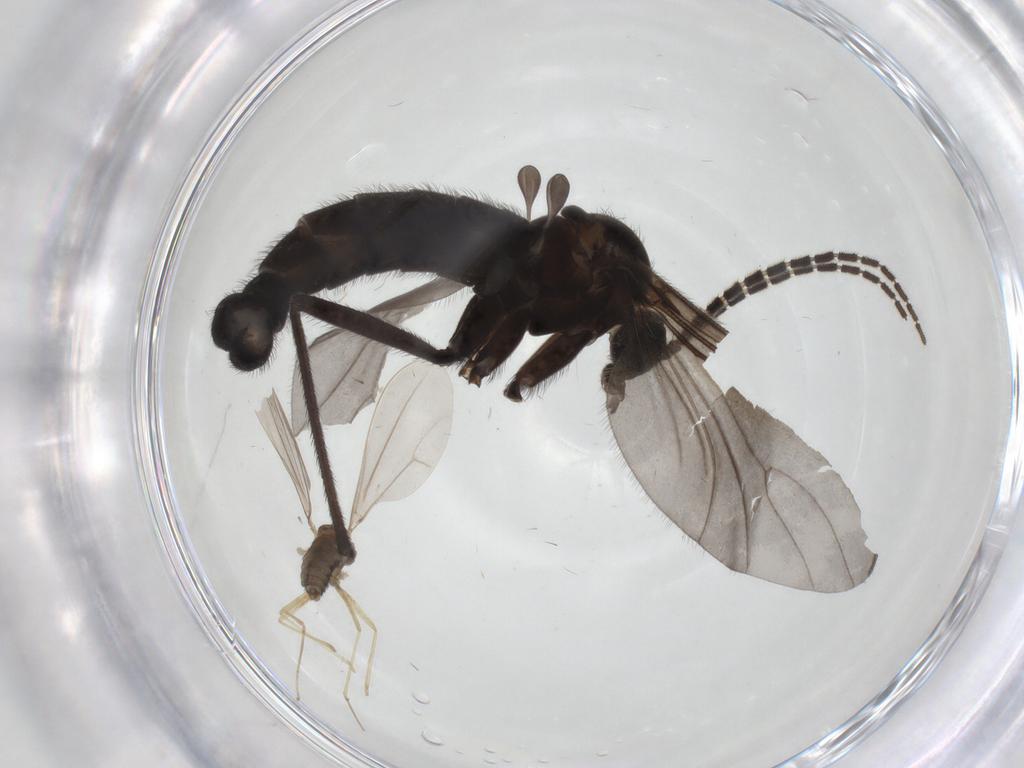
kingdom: Animalia
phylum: Arthropoda
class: Insecta
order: Diptera
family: Sciaridae
